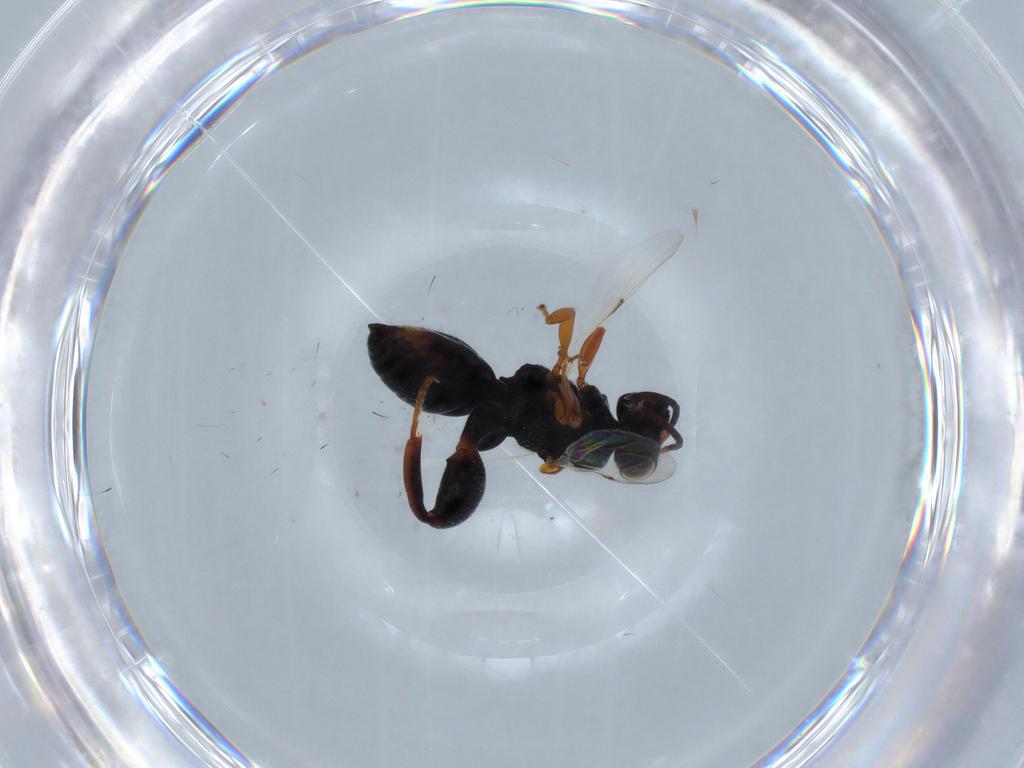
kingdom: Animalia
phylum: Arthropoda
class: Insecta
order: Hymenoptera
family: Chalcididae
